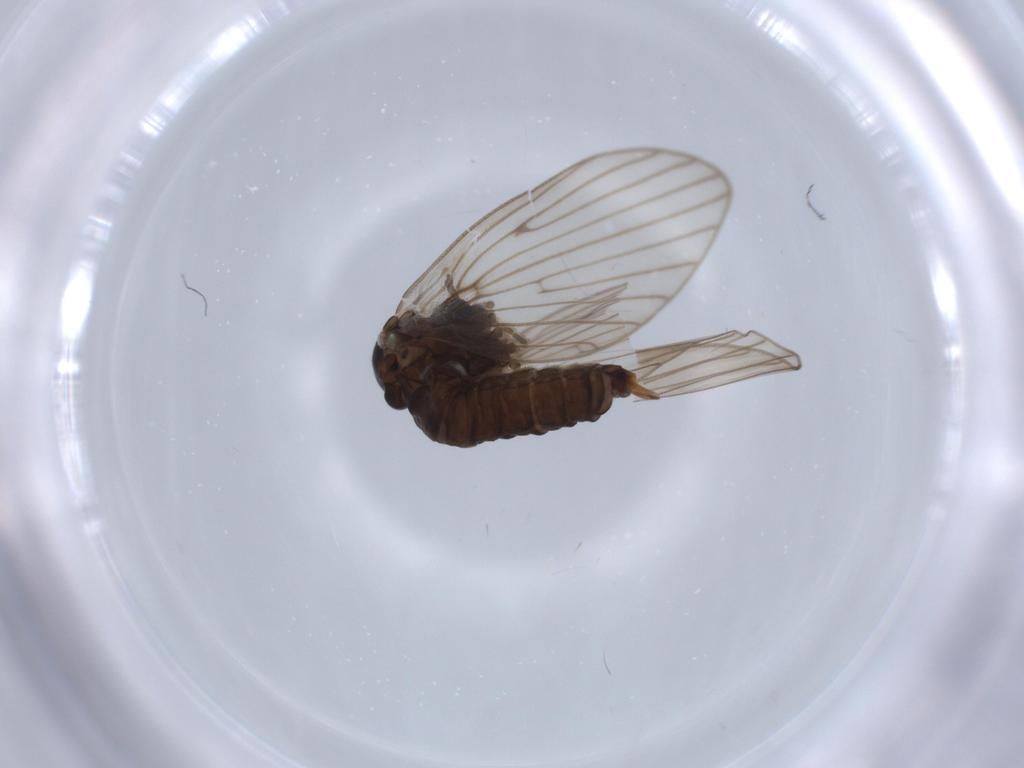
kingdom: Animalia
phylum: Arthropoda
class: Insecta
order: Diptera
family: Psychodidae
